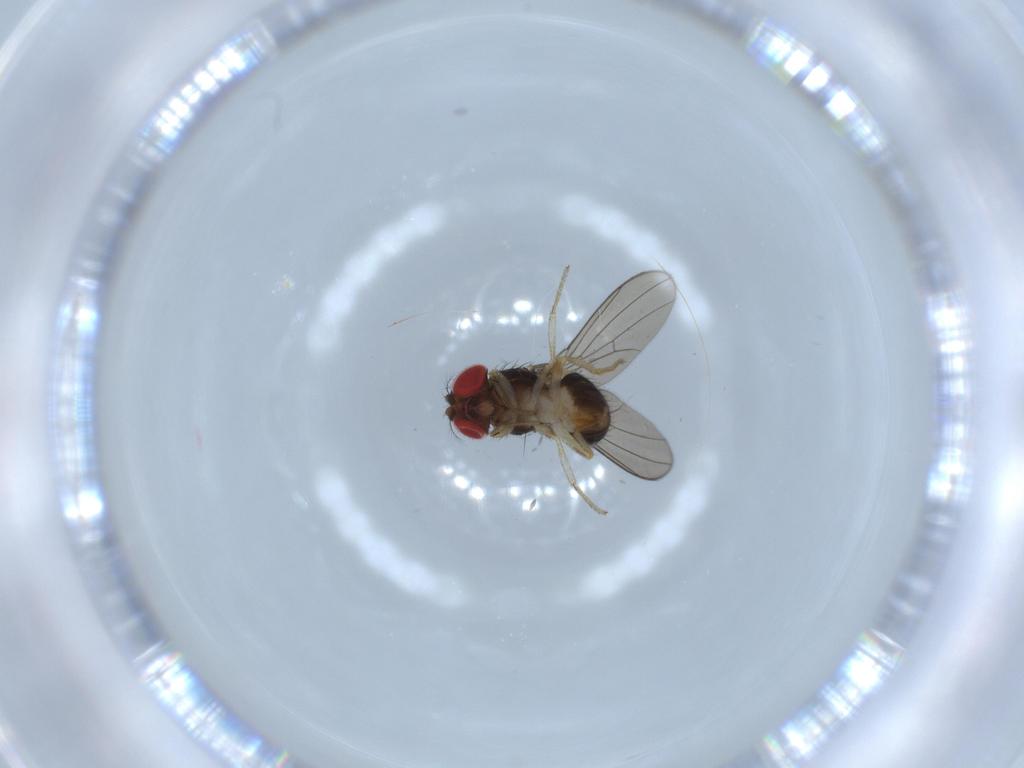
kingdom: Animalia
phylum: Arthropoda
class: Insecta
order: Diptera
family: Drosophilidae
